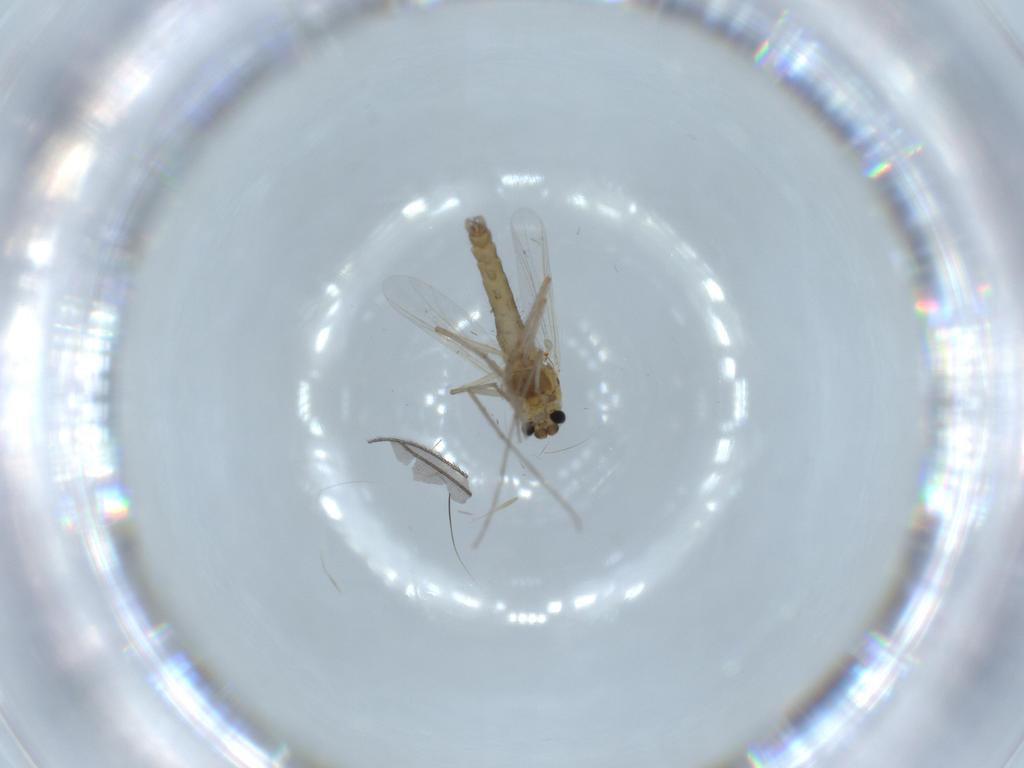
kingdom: Animalia
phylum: Arthropoda
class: Insecta
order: Diptera
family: Chironomidae
